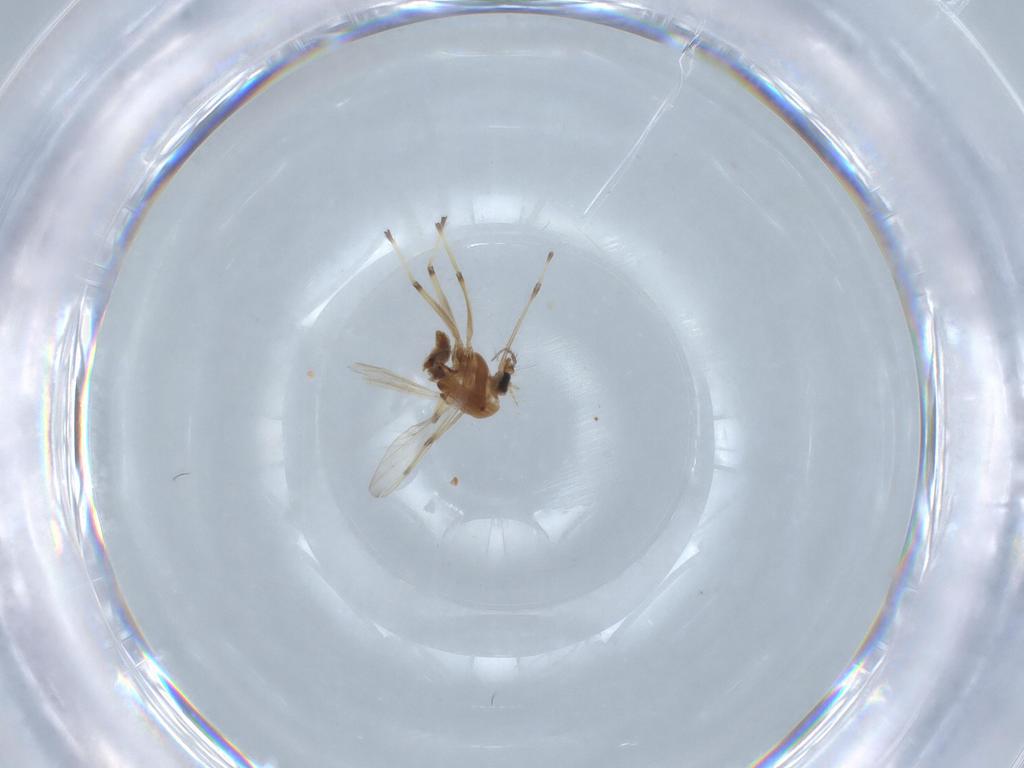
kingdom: Animalia
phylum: Arthropoda
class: Insecta
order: Diptera
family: Chironomidae
